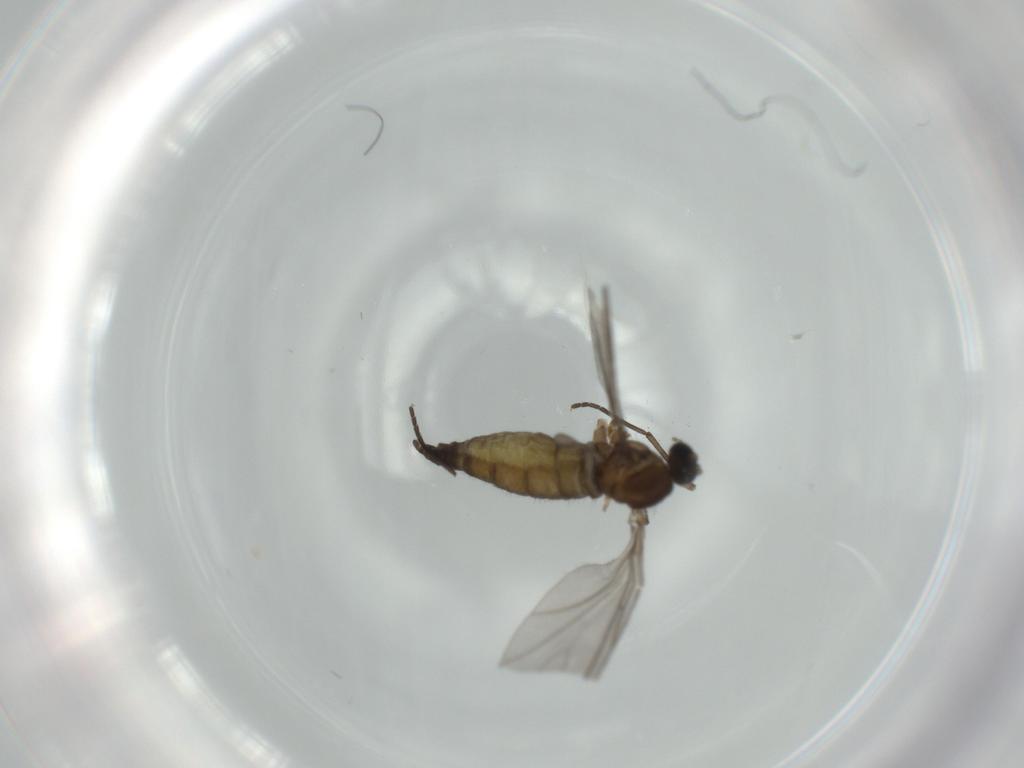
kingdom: Animalia
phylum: Arthropoda
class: Insecta
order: Diptera
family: Sciaridae
